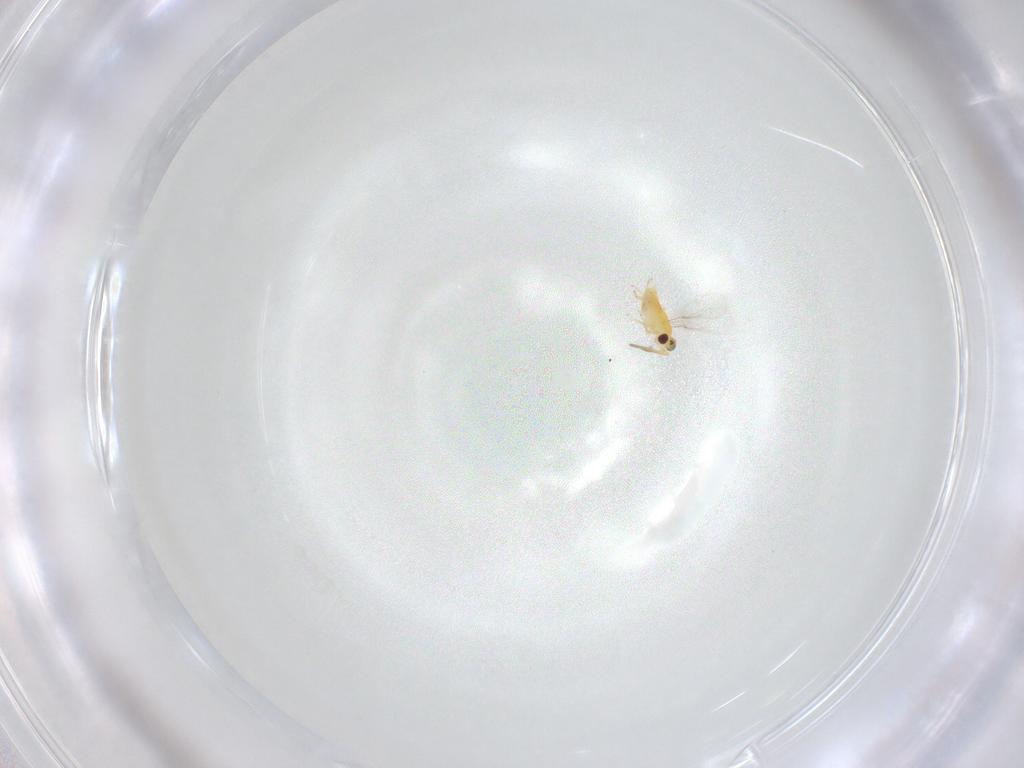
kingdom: Animalia
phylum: Arthropoda
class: Insecta
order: Diptera
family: Cecidomyiidae
